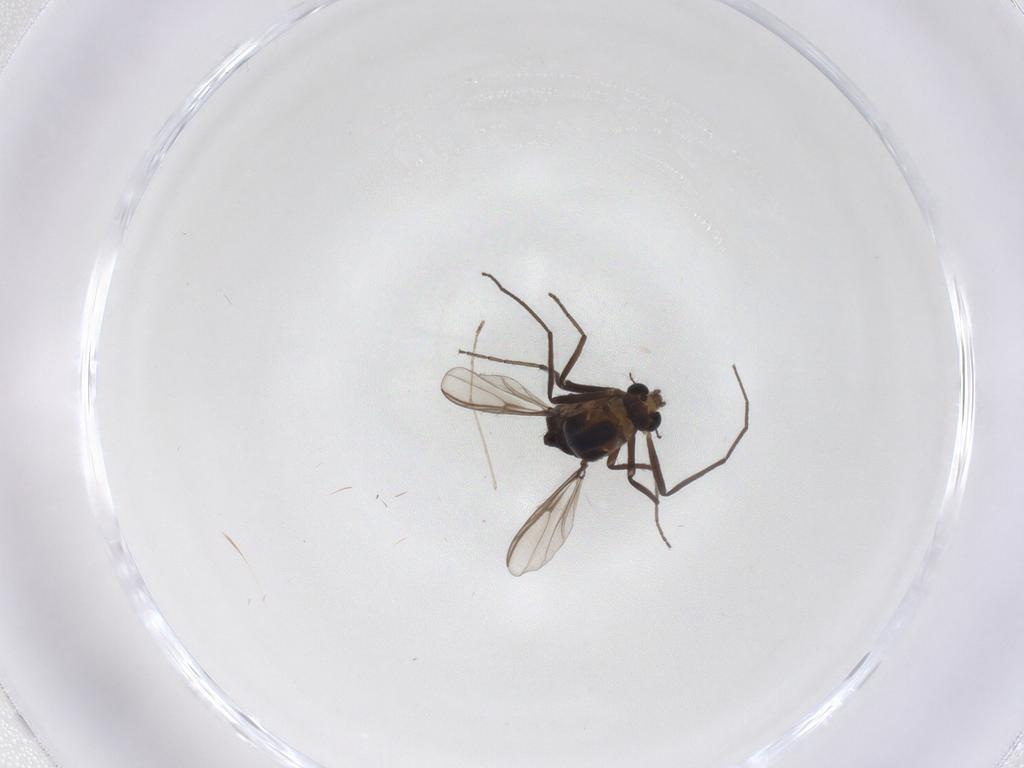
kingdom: Animalia
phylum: Arthropoda
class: Insecta
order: Diptera
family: Chironomidae
